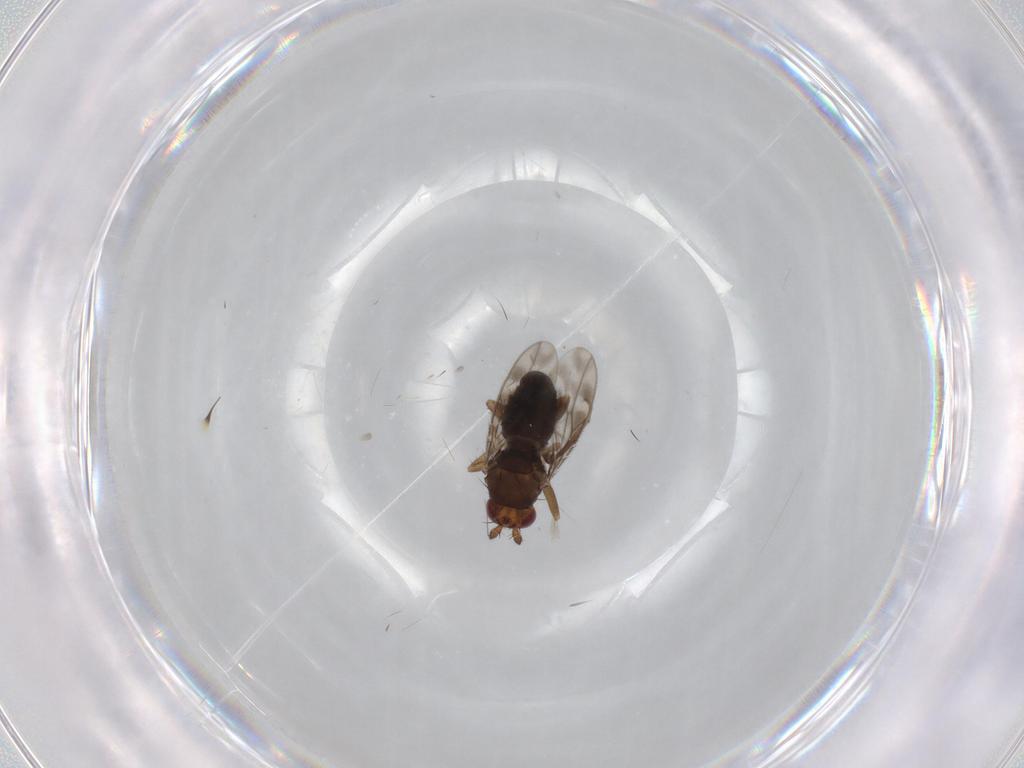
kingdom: Animalia
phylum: Arthropoda
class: Insecta
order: Diptera
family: Sphaeroceridae
